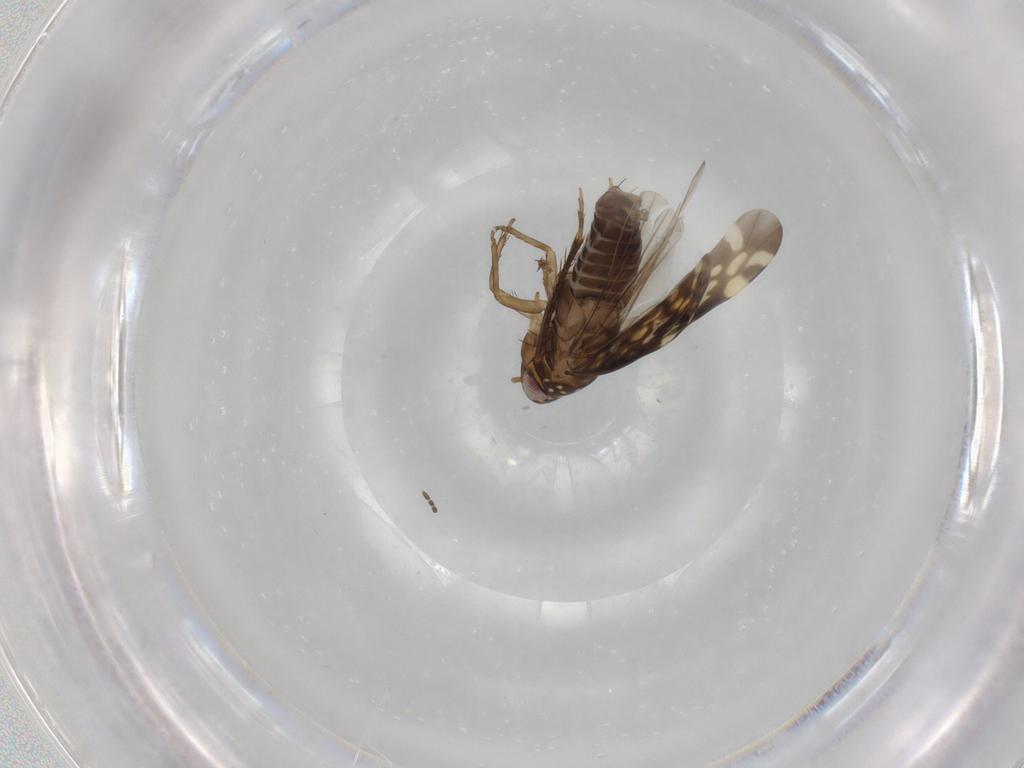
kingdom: Animalia
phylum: Arthropoda
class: Insecta
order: Hemiptera
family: Cicadellidae
